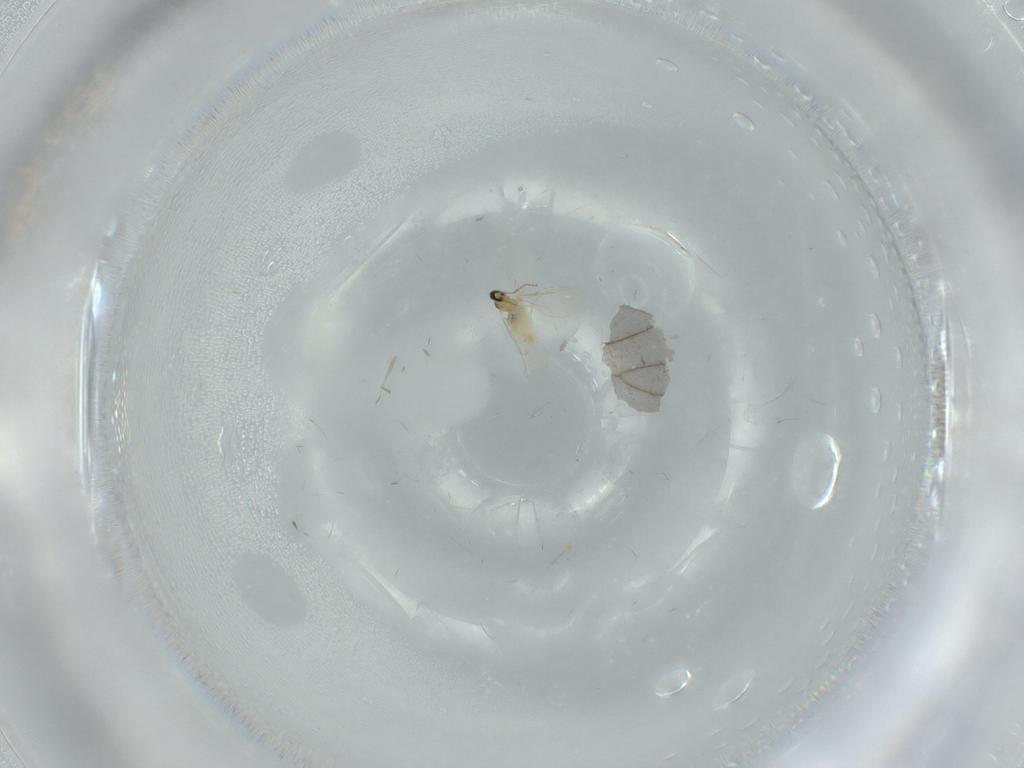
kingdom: Animalia
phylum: Arthropoda
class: Insecta
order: Diptera
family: Cecidomyiidae
